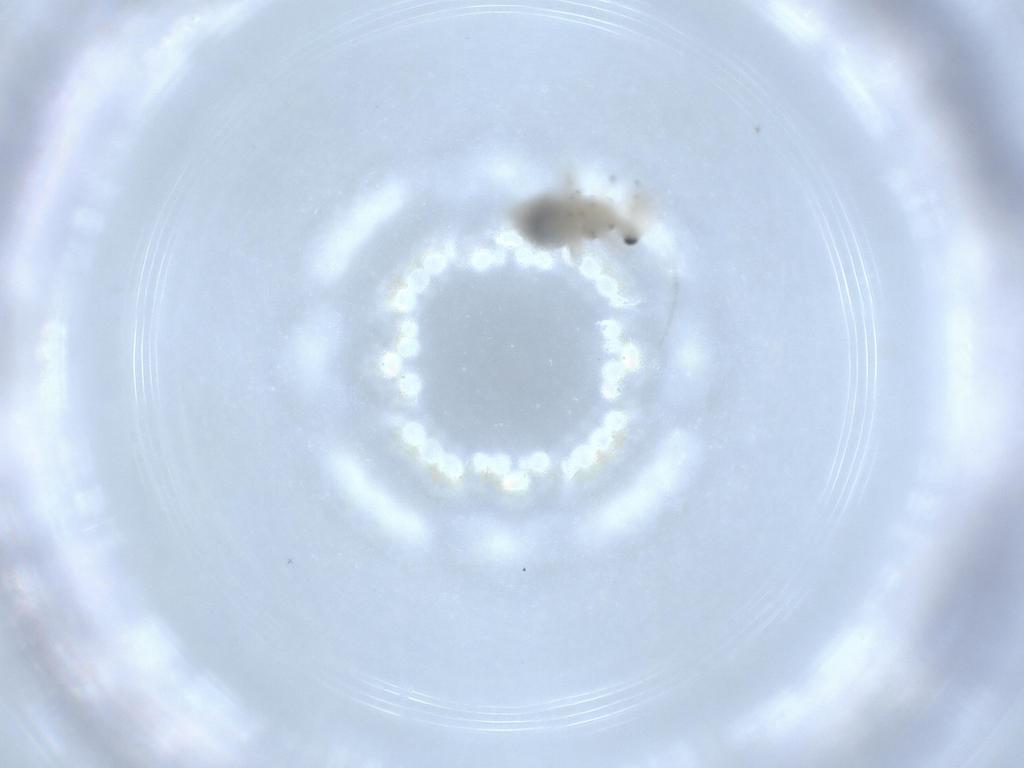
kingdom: Animalia
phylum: Arthropoda
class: Insecta
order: Psocodea
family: Amphipsocidae
